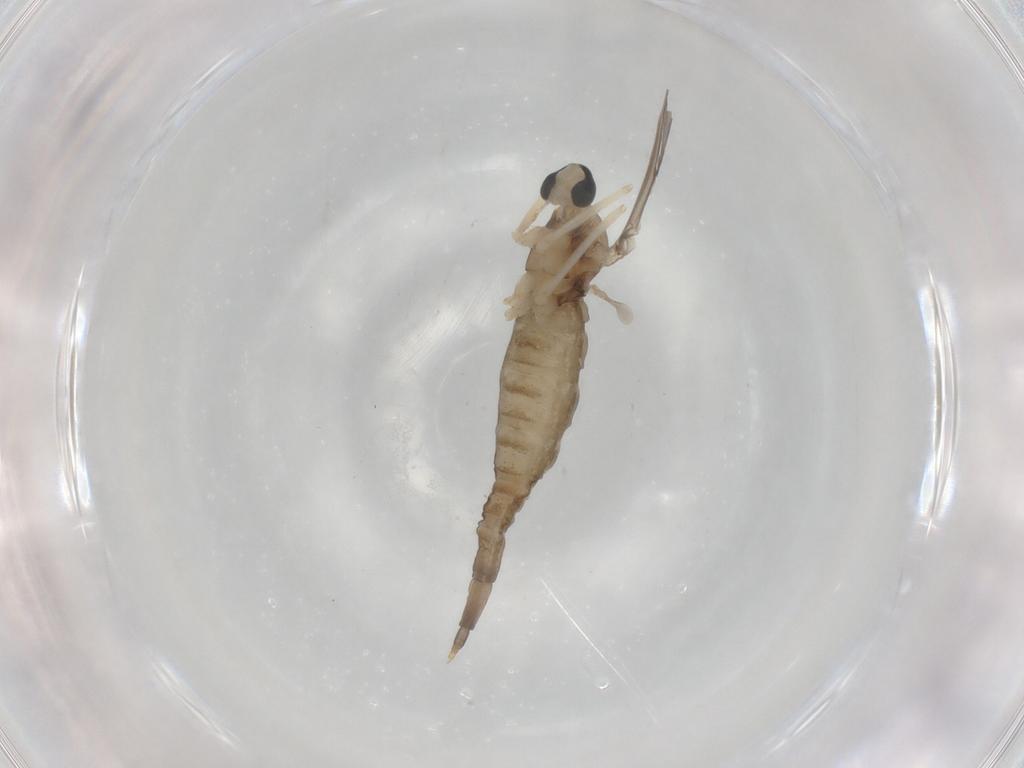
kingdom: Animalia
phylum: Arthropoda
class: Insecta
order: Diptera
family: Cecidomyiidae
